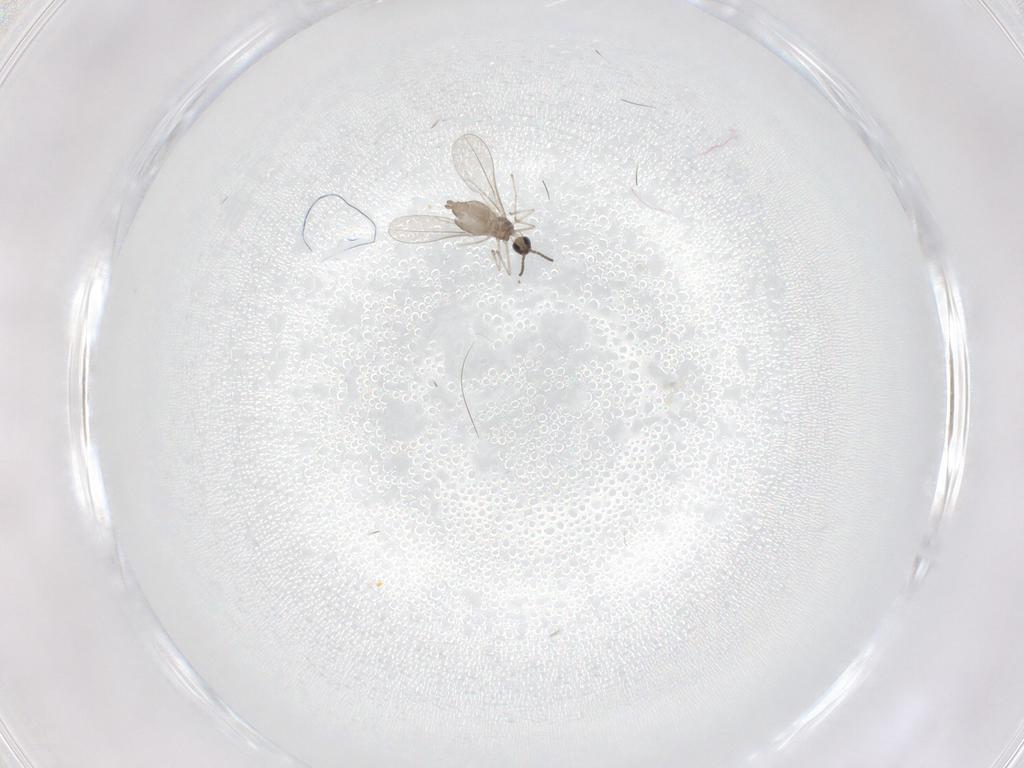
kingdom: Animalia
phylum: Arthropoda
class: Insecta
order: Diptera
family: Cecidomyiidae
